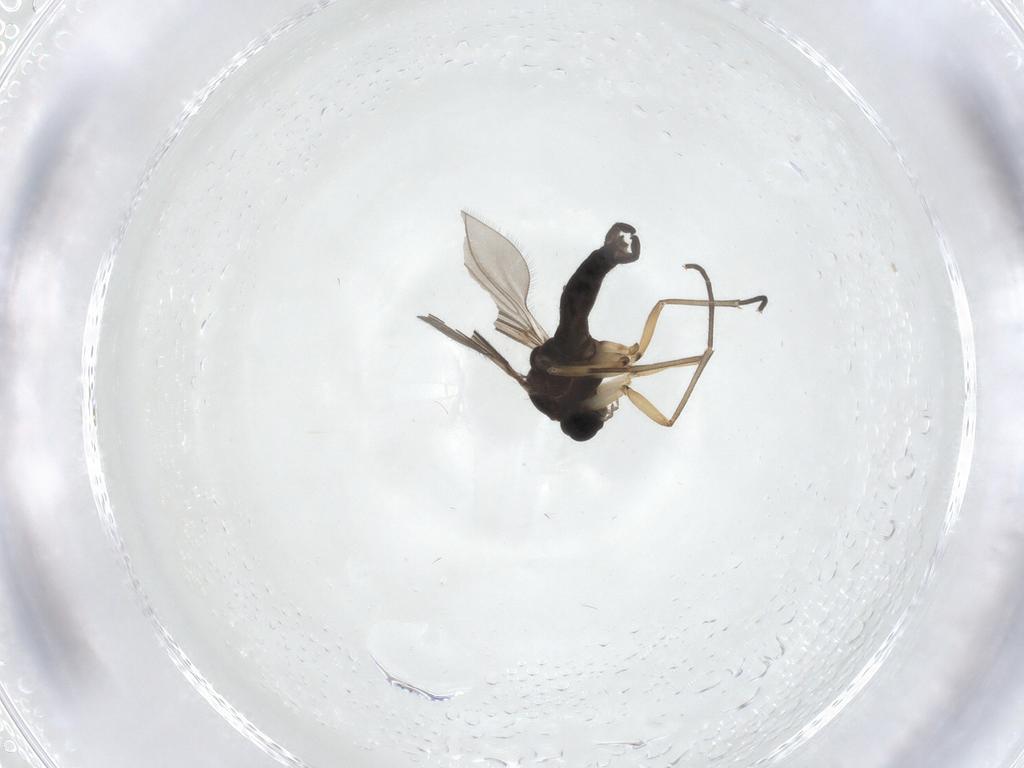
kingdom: Animalia
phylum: Arthropoda
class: Insecta
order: Diptera
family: Sciaridae
